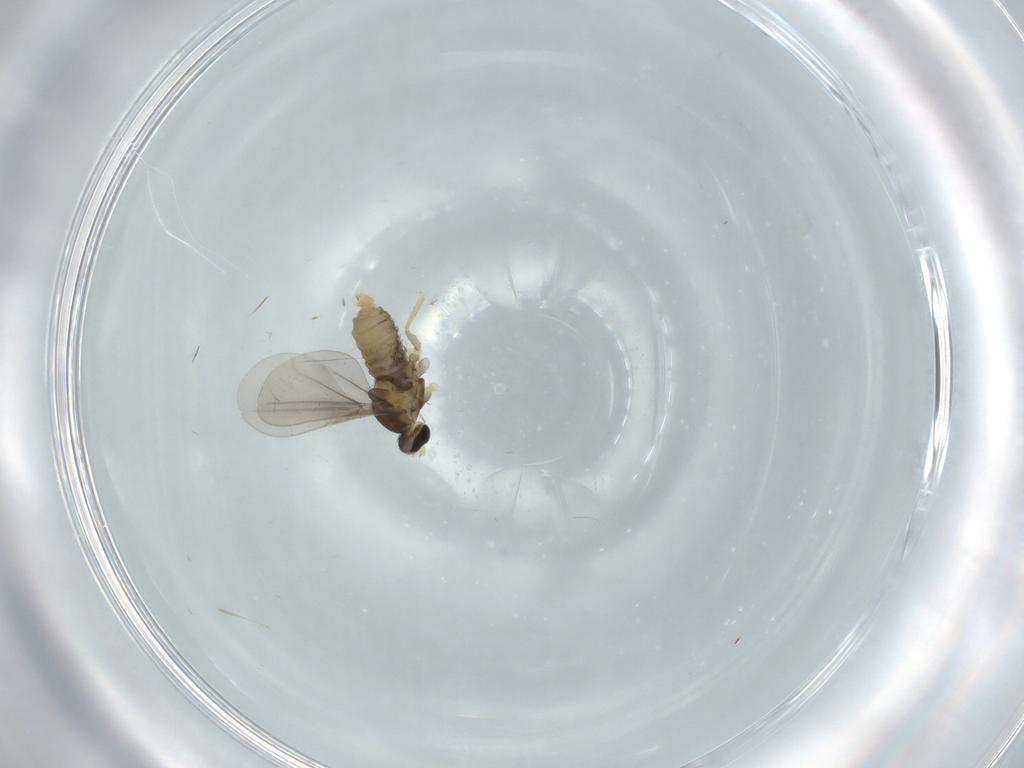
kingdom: Animalia
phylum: Arthropoda
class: Insecta
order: Diptera
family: Cecidomyiidae
